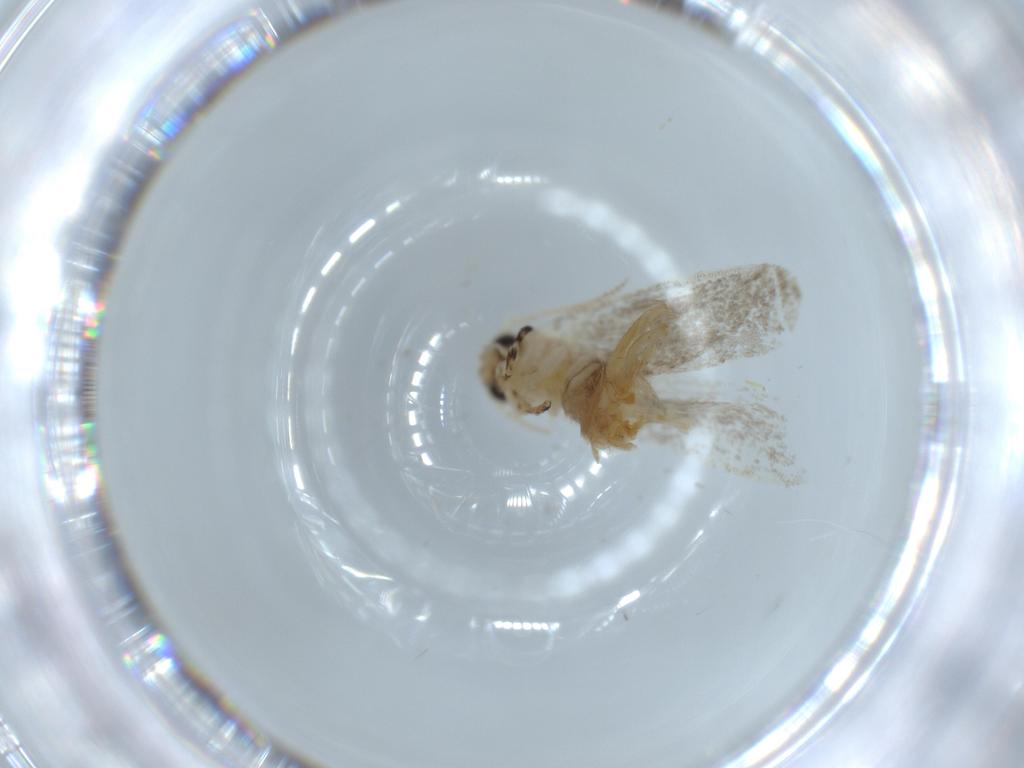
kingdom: Animalia
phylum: Arthropoda
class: Insecta
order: Lepidoptera
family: Tineidae
